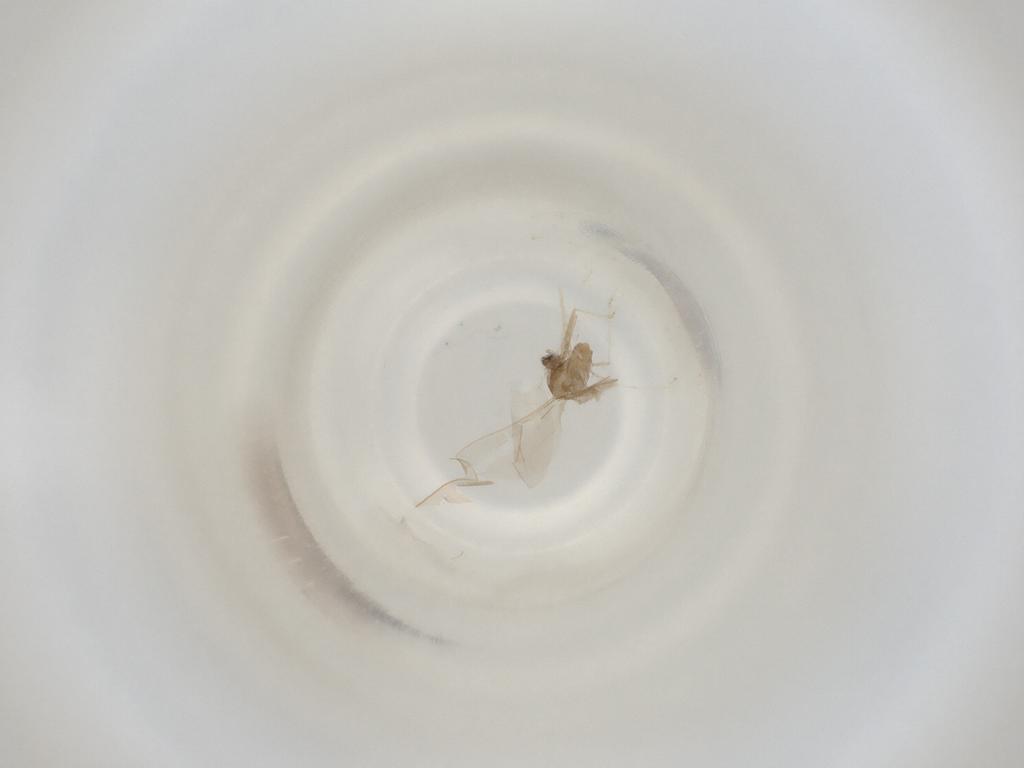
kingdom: Animalia
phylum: Arthropoda
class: Insecta
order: Diptera
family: Cecidomyiidae
